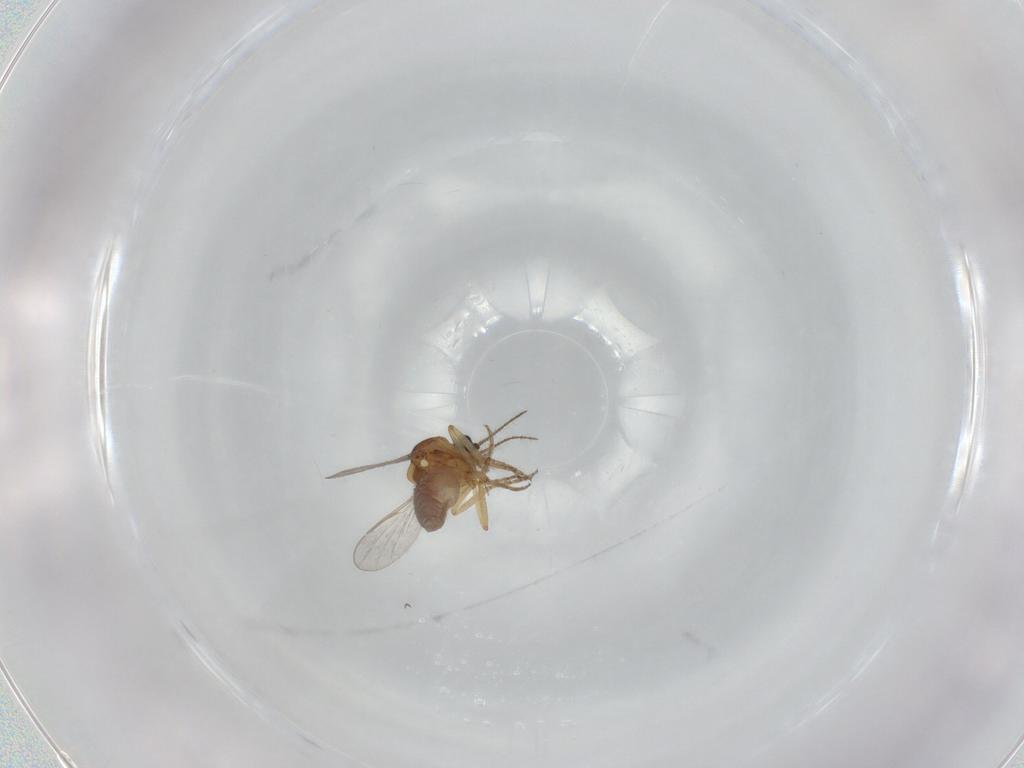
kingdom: Animalia
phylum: Arthropoda
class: Insecta
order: Diptera
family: Ceratopogonidae
